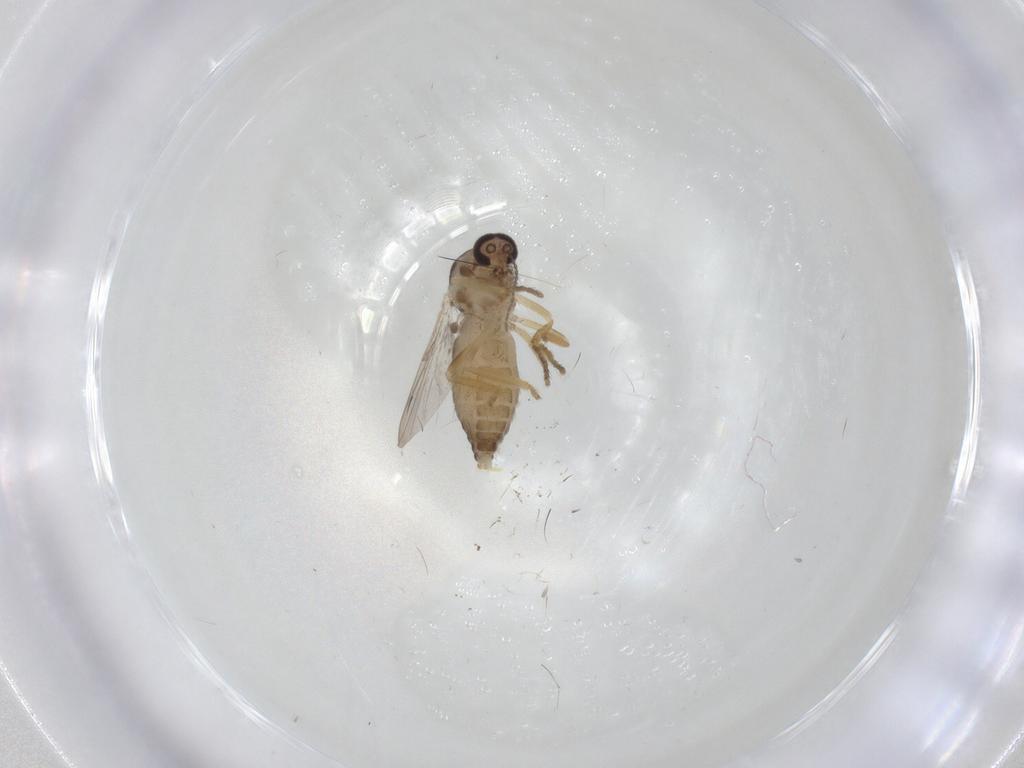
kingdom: Animalia
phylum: Arthropoda
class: Insecta
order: Diptera
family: Ceratopogonidae
